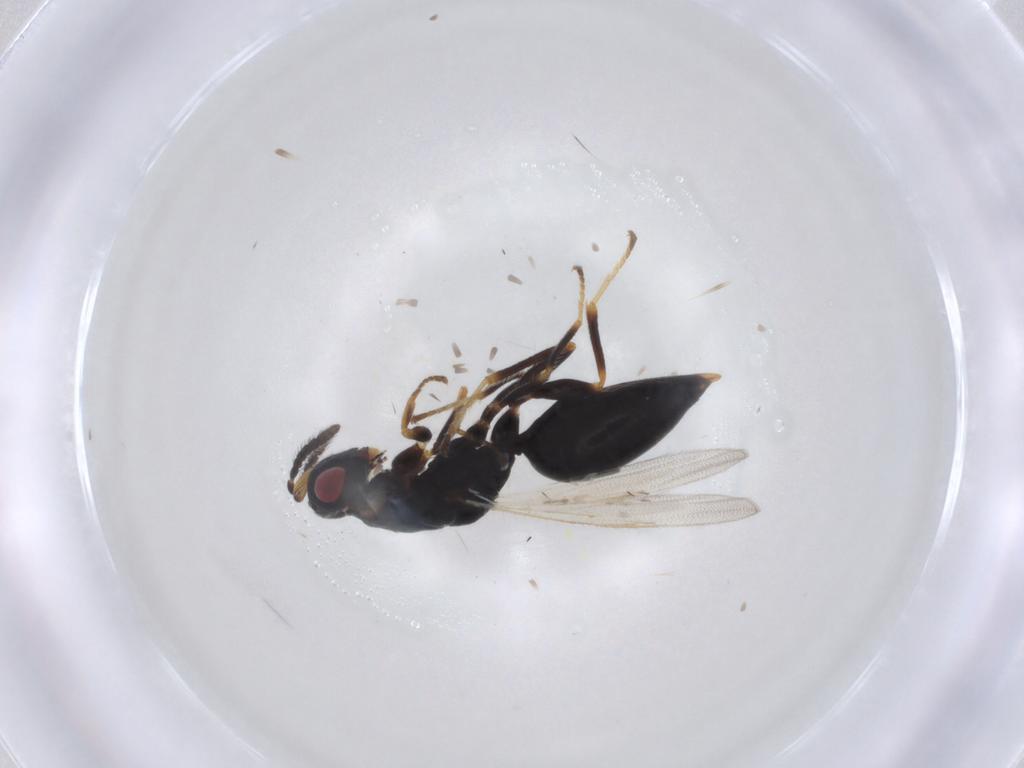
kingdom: Animalia
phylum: Arthropoda
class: Insecta
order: Hymenoptera
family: Eurytomidae
